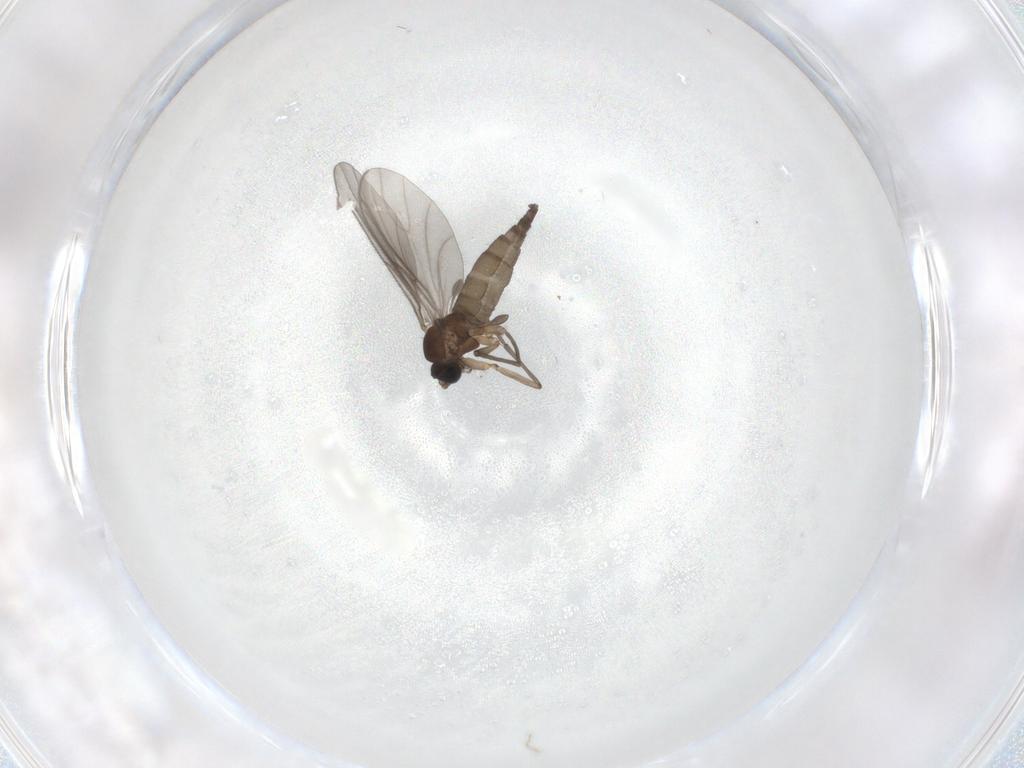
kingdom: Animalia
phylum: Arthropoda
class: Insecta
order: Diptera
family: Sciaridae
